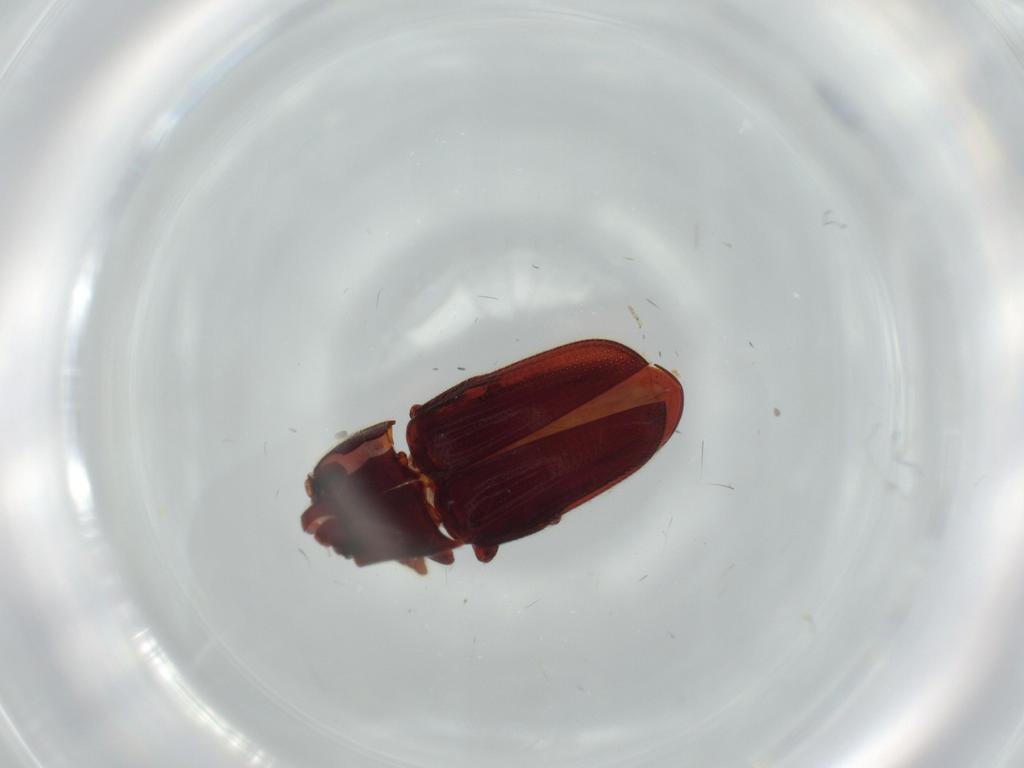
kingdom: Animalia
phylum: Arthropoda
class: Insecta
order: Coleoptera
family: Throscidae
